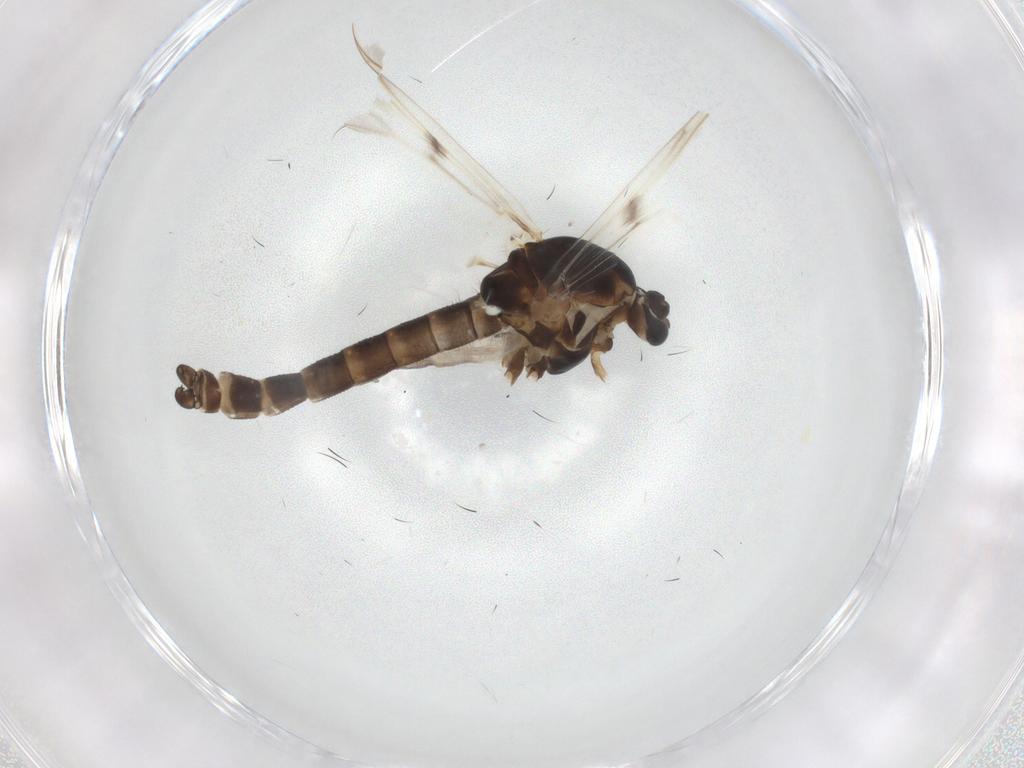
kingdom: Animalia
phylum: Arthropoda
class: Insecta
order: Diptera
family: Chironomidae
